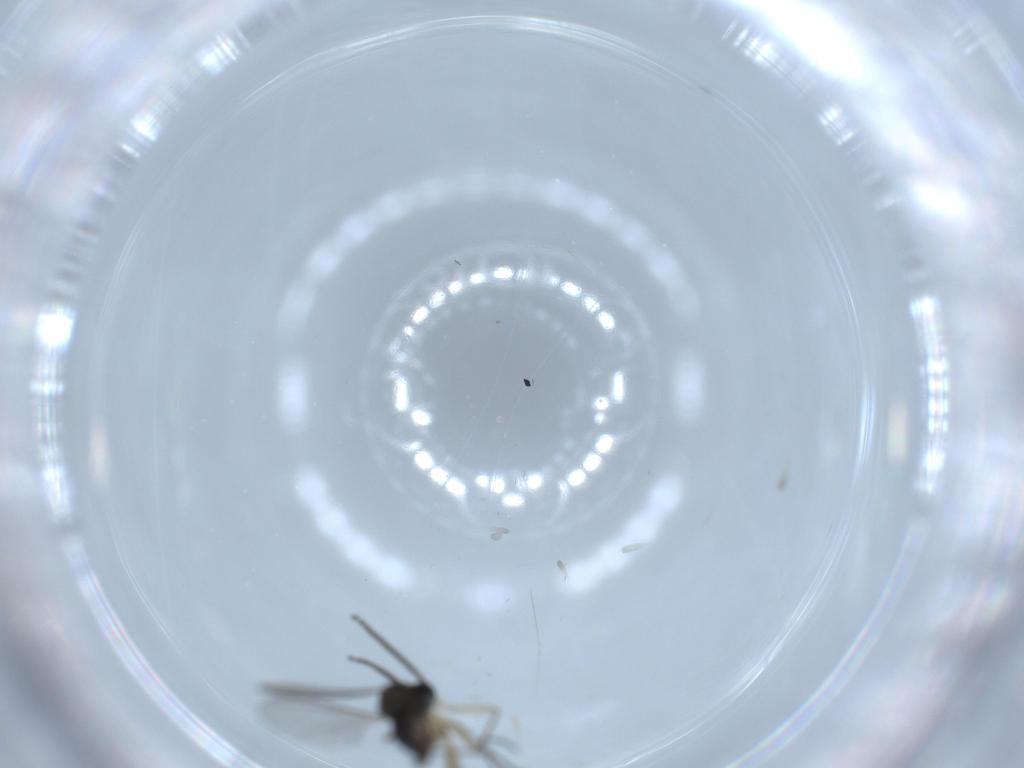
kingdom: Animalia
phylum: Arthropoda
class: Insecta
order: Diptera
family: Sciaridae
